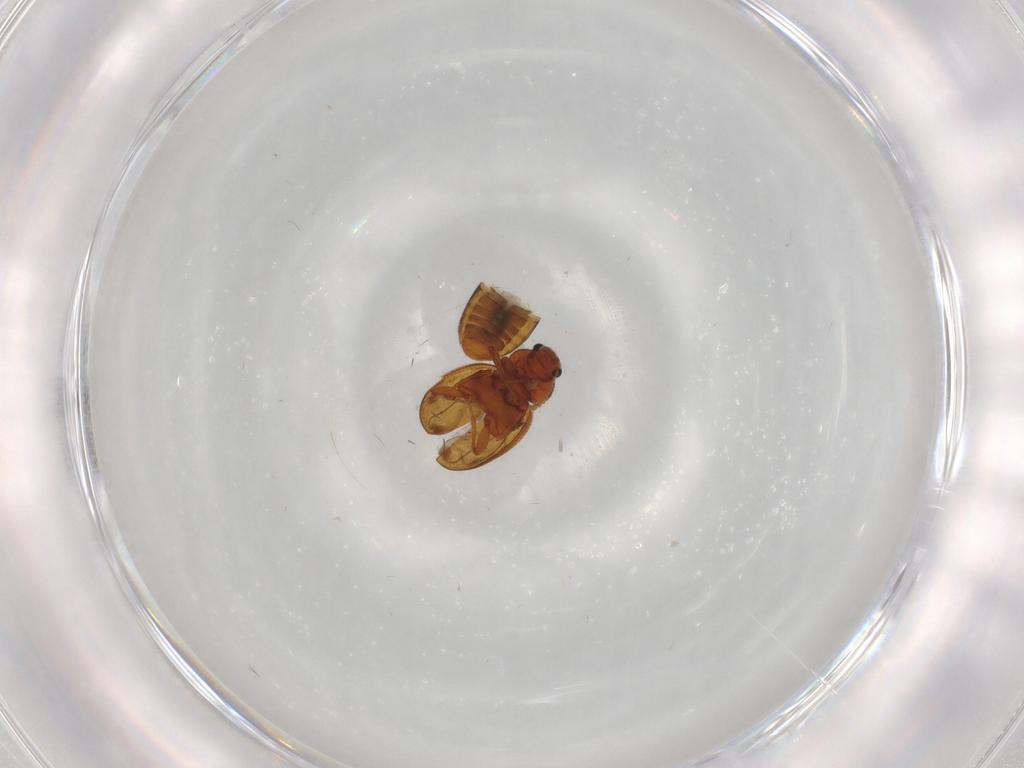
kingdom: Animalia
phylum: Arthropoda
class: Insecta
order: Coleoptera
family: Latridiidae
